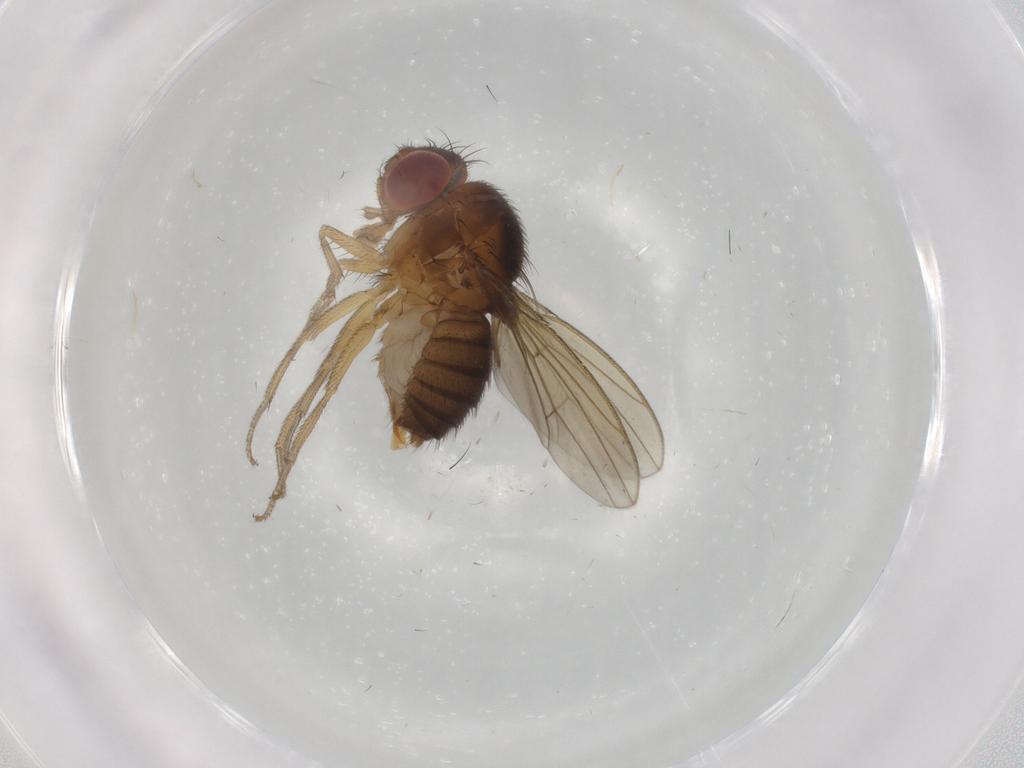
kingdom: Animalia
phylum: Arthropoda
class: Insecta
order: Diptera
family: Drosophilidae
